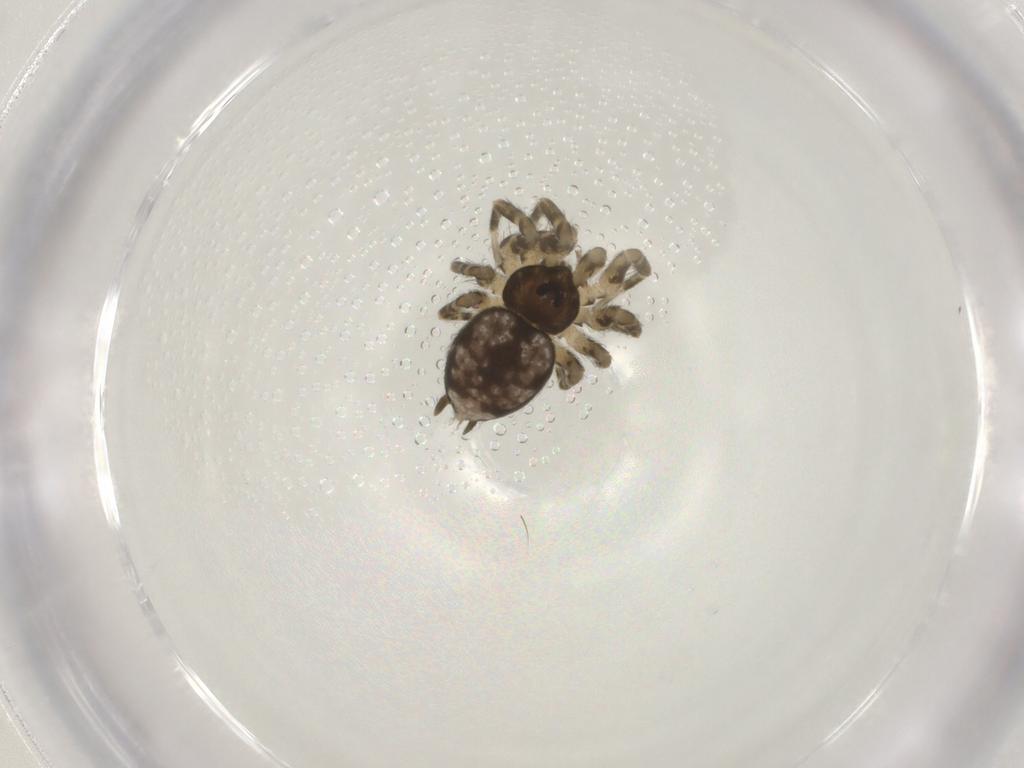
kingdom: Animalia
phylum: Arthropoda
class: Arachnida
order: Araneae
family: Oecobiidae
